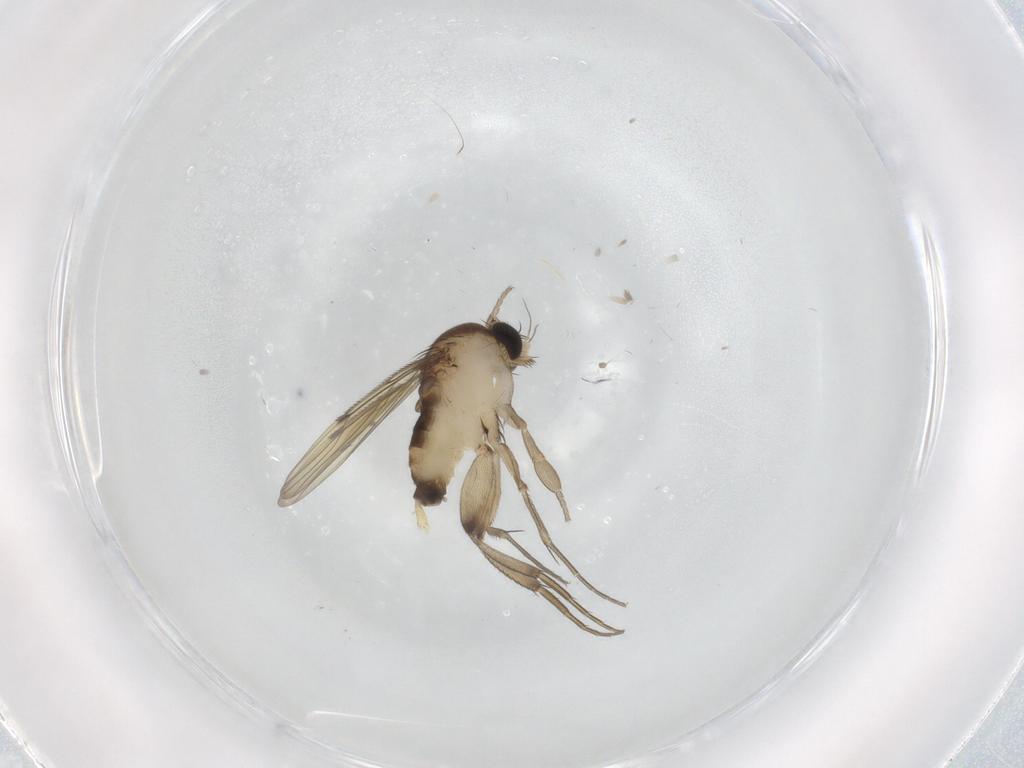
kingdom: Animalia
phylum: Arthropoda
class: Insecta
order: Diptera
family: Phoridae
